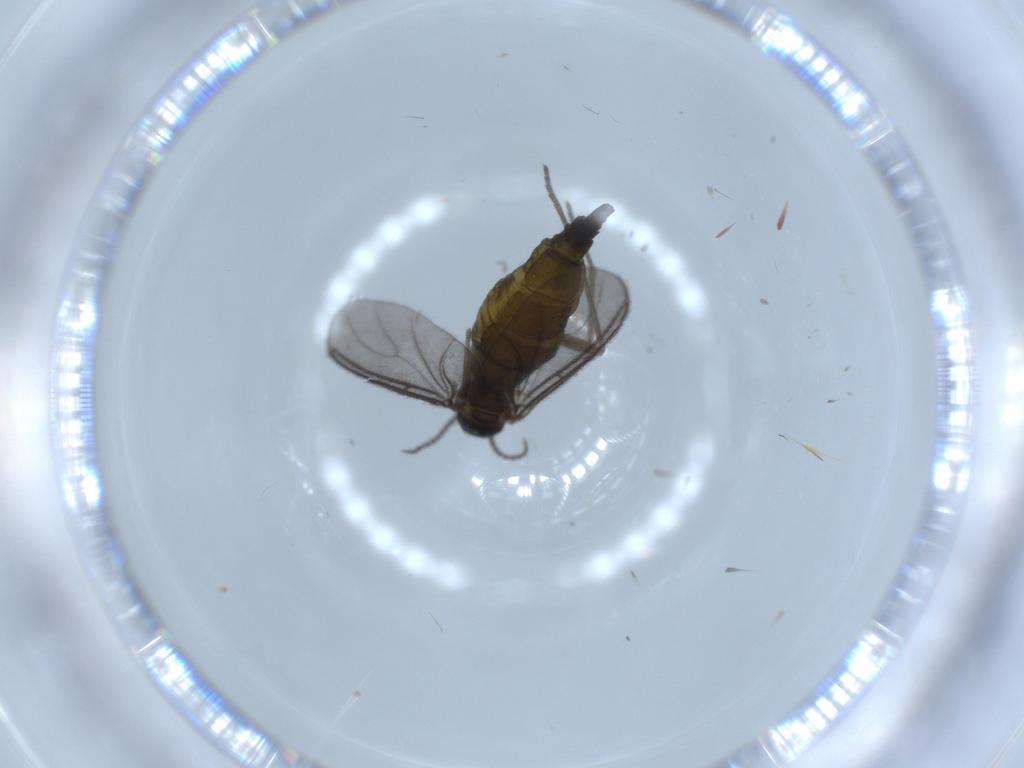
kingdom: Animalia
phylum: Arthropoda
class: Insecta
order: Diptera
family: Sciaridae
